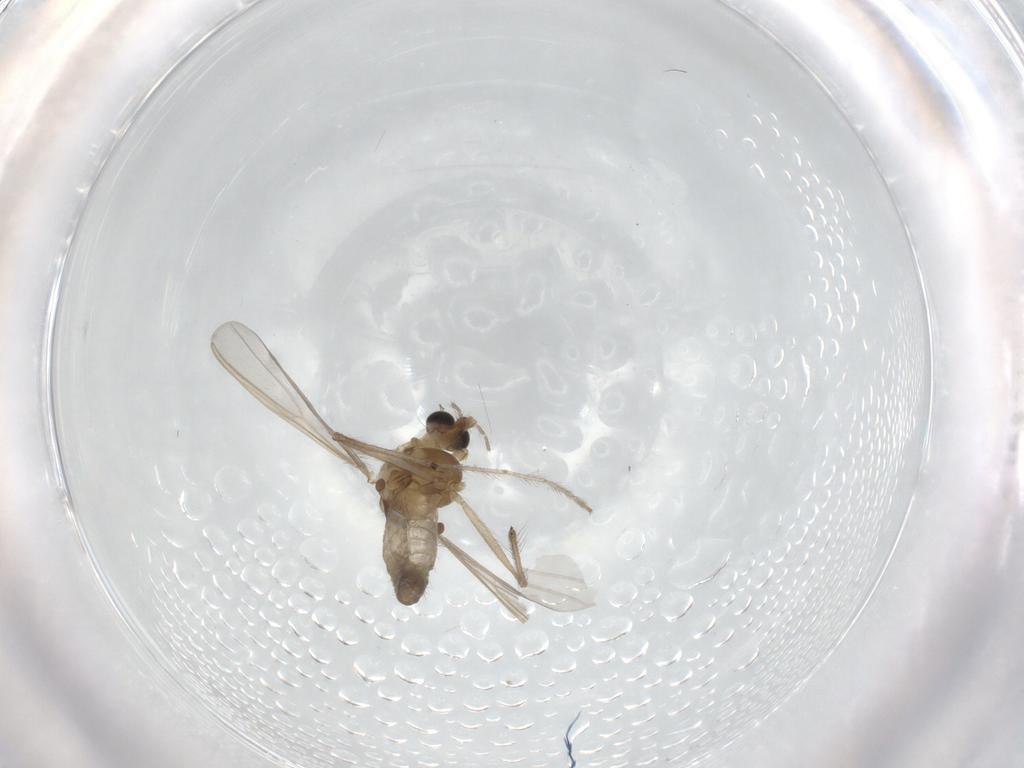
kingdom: Animalia
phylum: Arthropoda
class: Insecta
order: Diptera
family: Chironomidae
